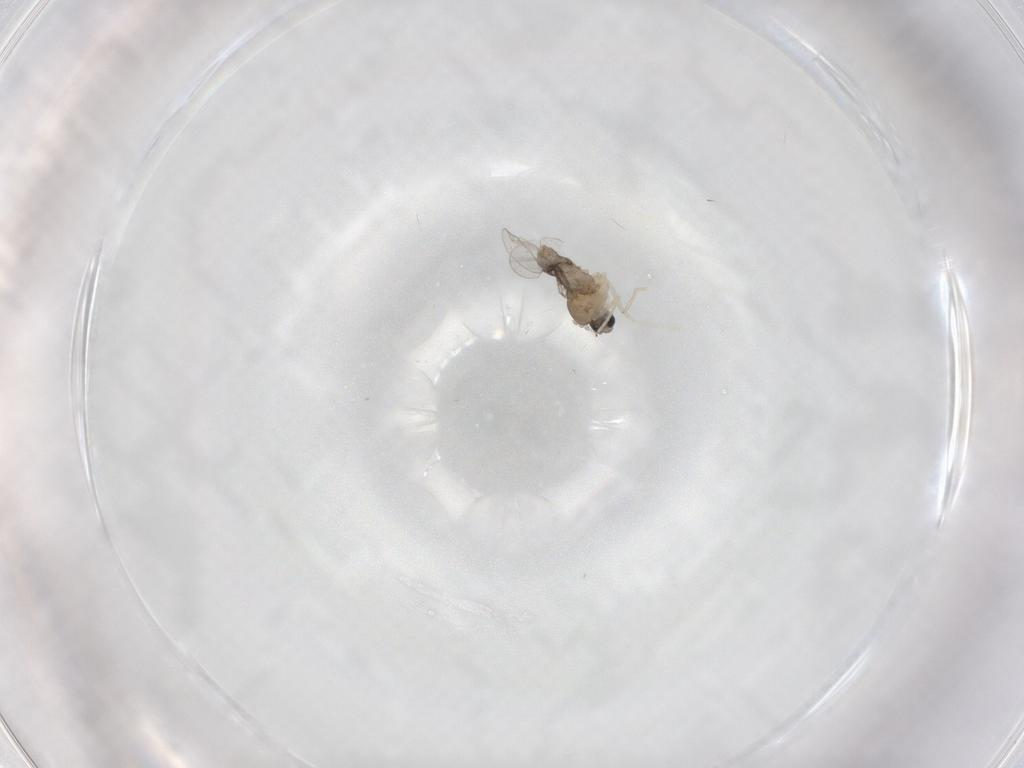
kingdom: Animalia
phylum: Arthropoda
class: Insecta
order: Diptera
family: Cecidomyiidae
